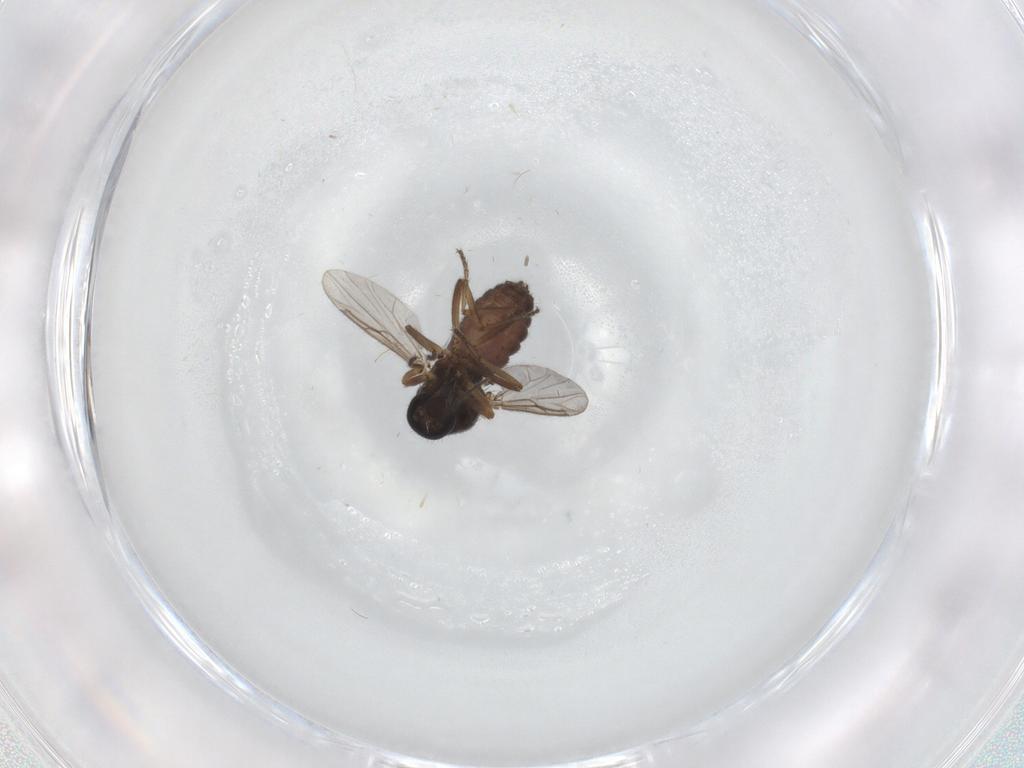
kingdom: Animalia
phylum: Arthropoda
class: Insecta
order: Diptera
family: Ceratopogonidae
